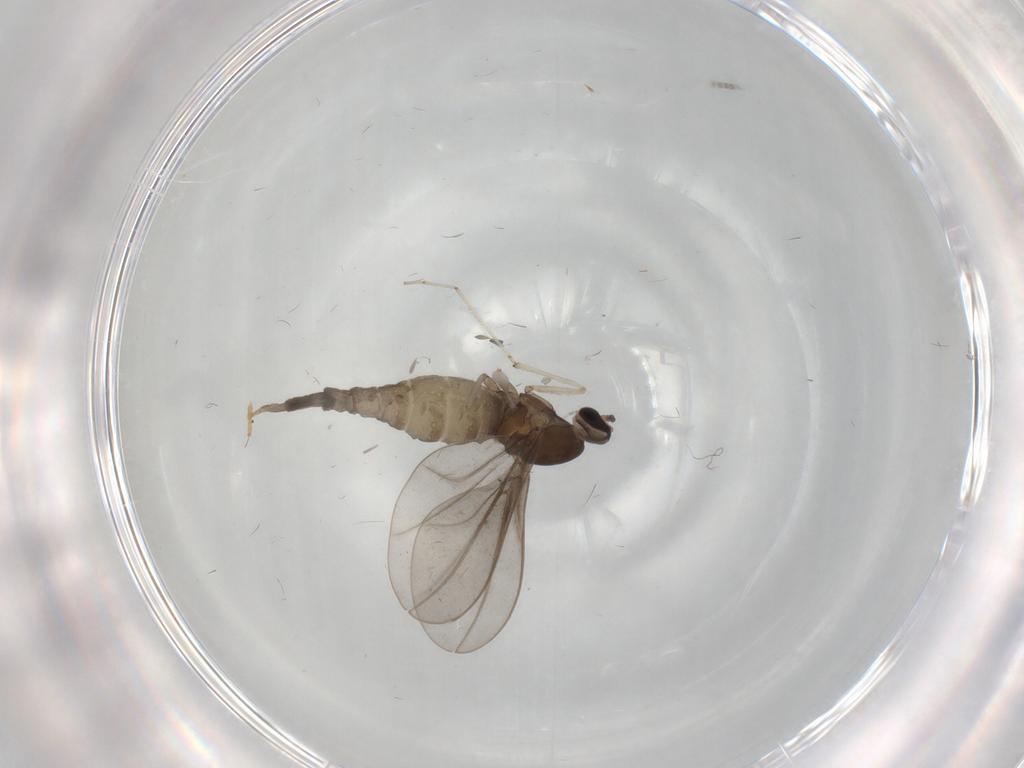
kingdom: Animalia
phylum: Arthropoda
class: Insecta
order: Diptera
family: Cecidomyiidae
